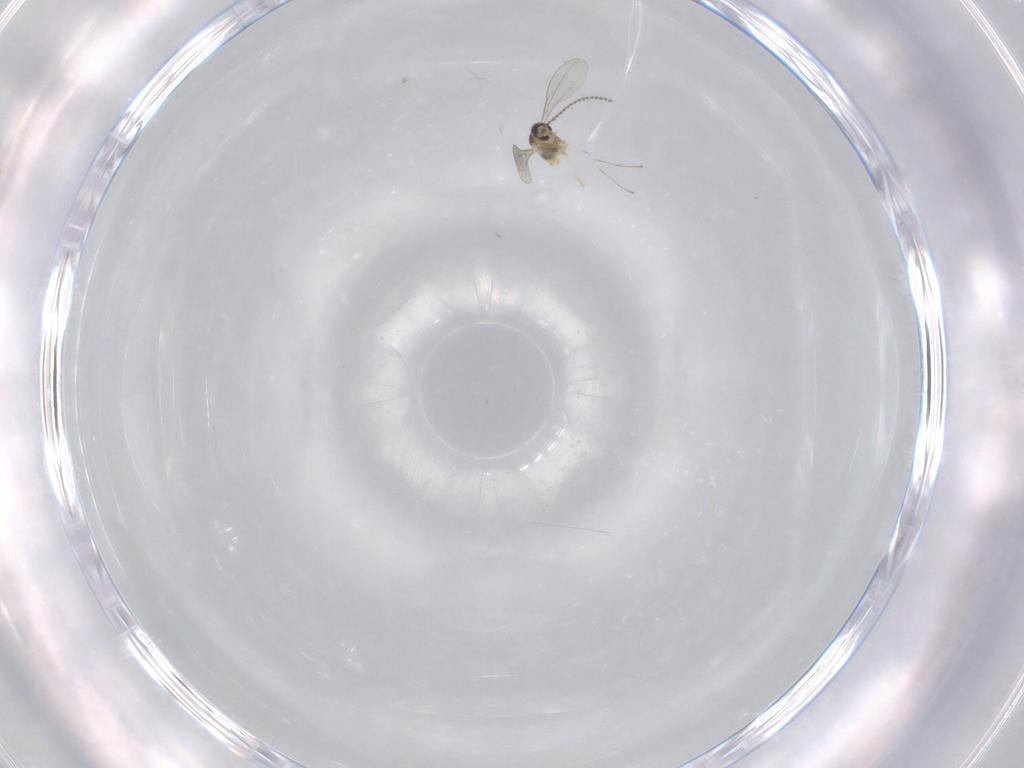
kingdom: Animalia
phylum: Arthropoda
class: Insecta
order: Diptera
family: Cecidomyiidae
